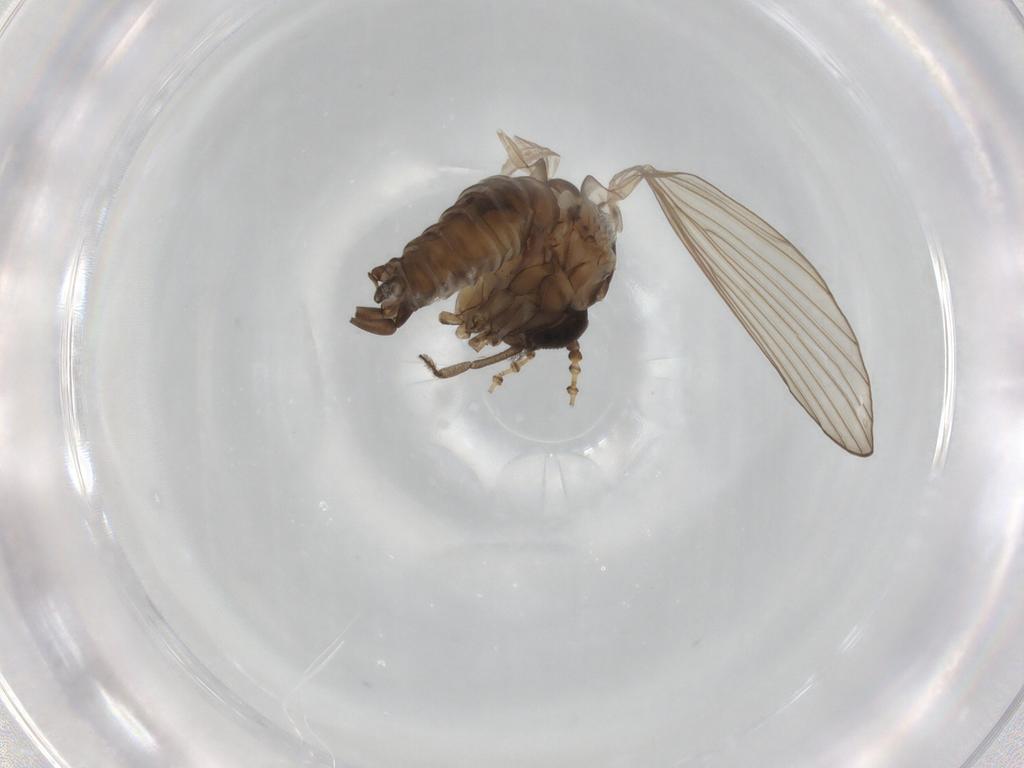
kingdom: Animalia
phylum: Arthropoda
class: Insecta
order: Diptera
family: Psychodidae
